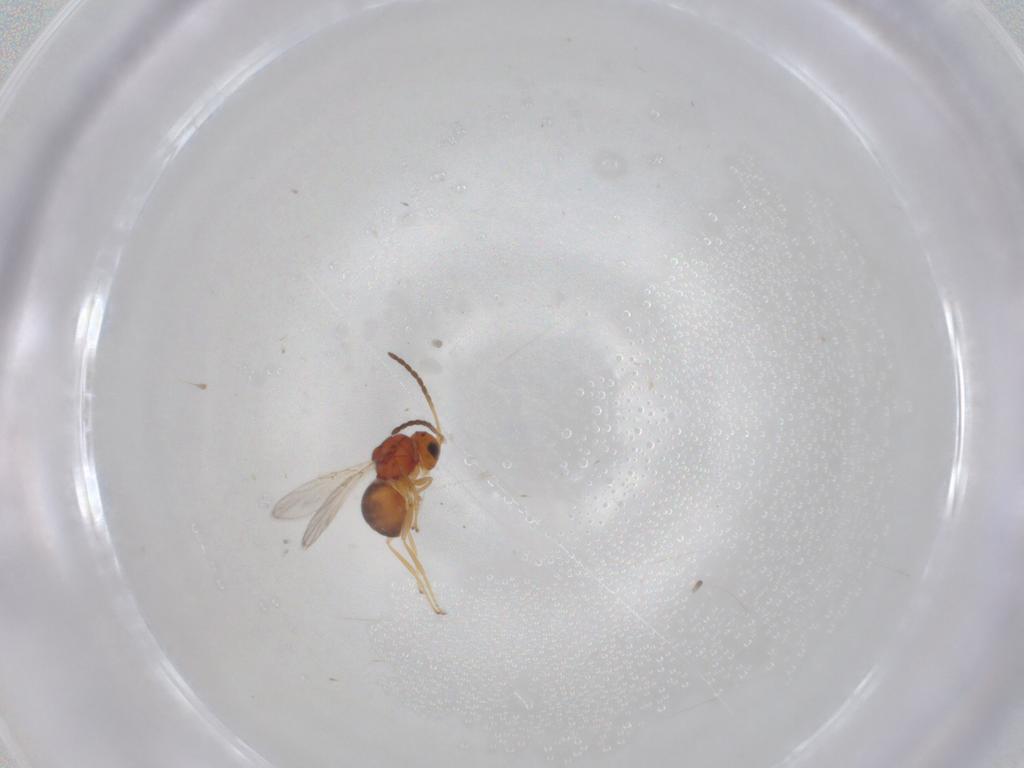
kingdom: Animalia
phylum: Arthropoda
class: Insecta
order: Hymenoptera
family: Figitidae
